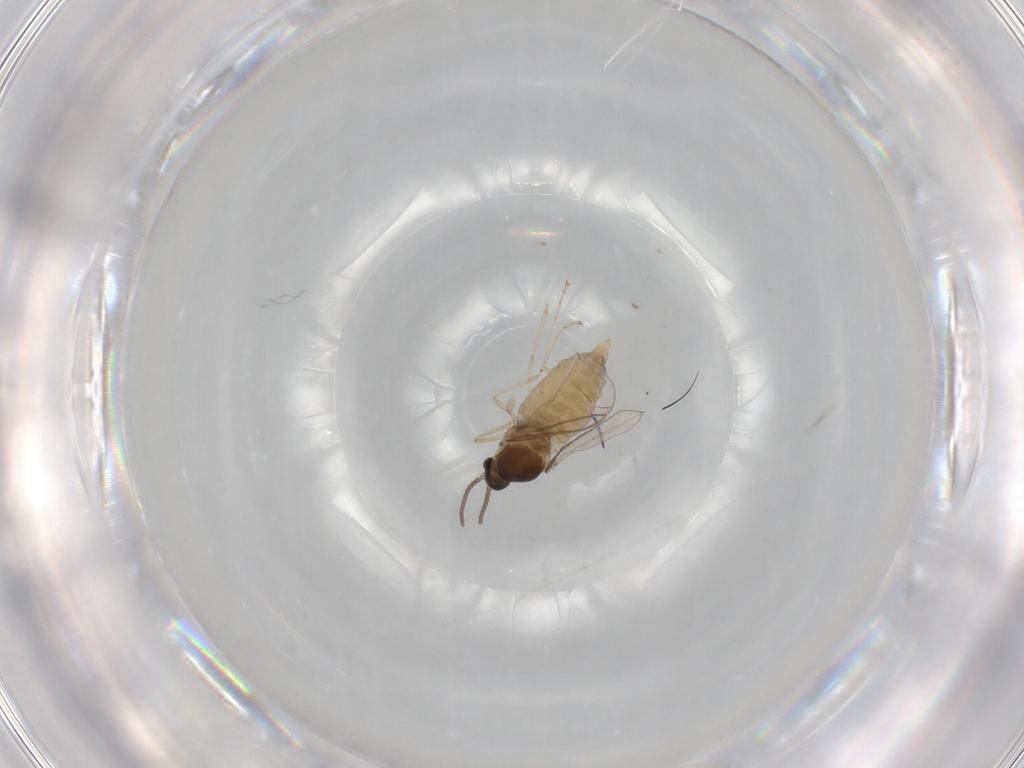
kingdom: Animalia
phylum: Arthropoda
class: Insecta
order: Diptera
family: Cecidomyiidae
